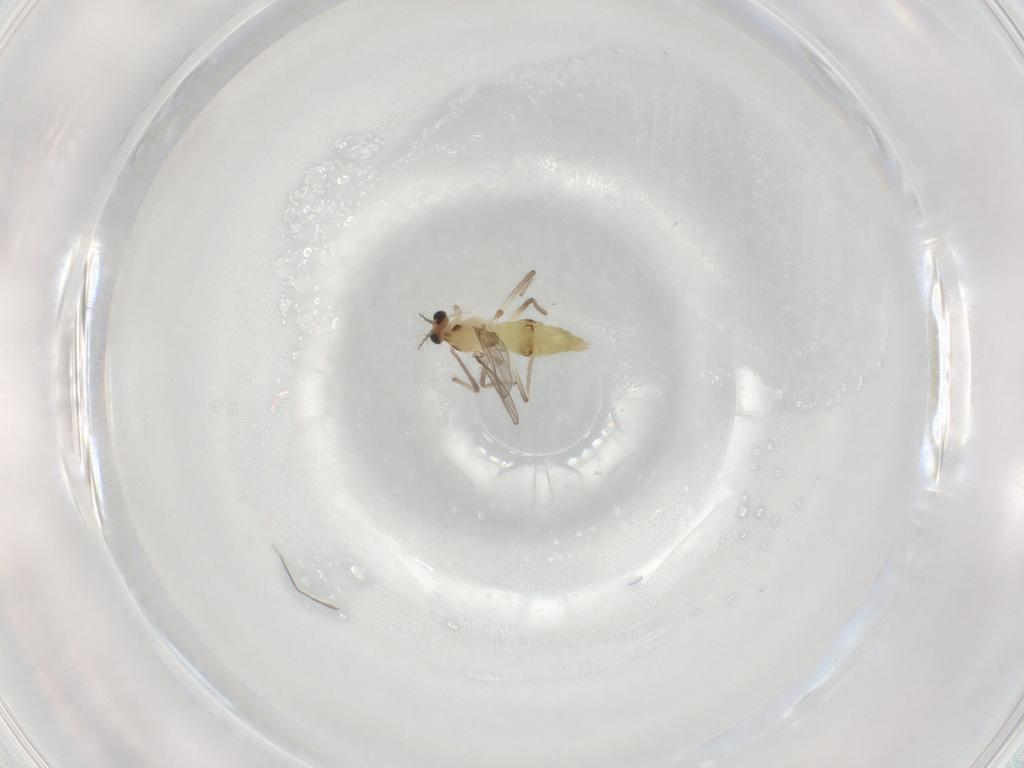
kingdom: Animalia
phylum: Arthropoda
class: Insecta
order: Diptera
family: Chironomidae
